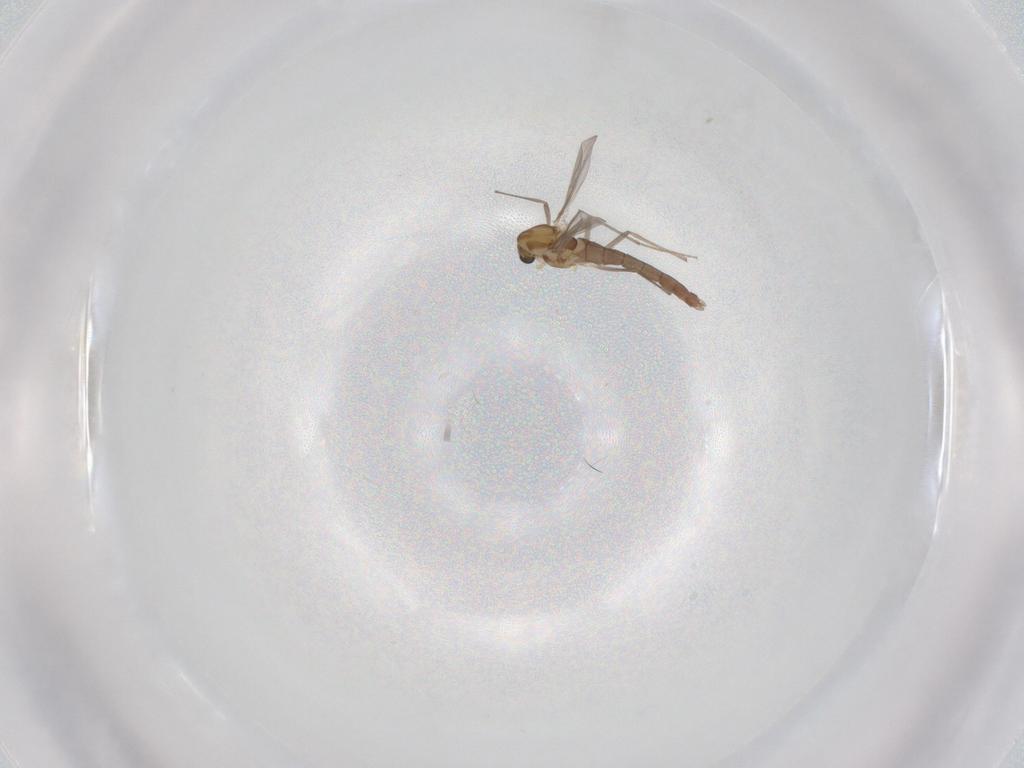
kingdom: Animalia
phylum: Arthropoda
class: Insecta
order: Diptera
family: Chironomidae
